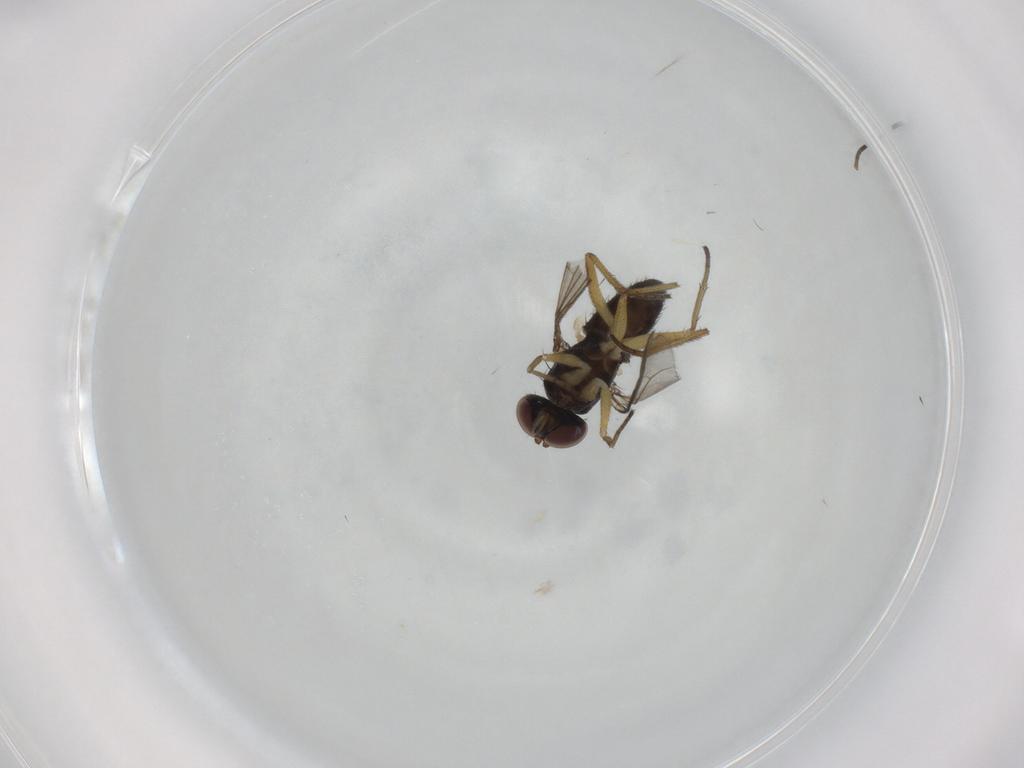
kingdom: Animalia
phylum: Arthropoda
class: Insecta
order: Diptera
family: Dolichopodidae
